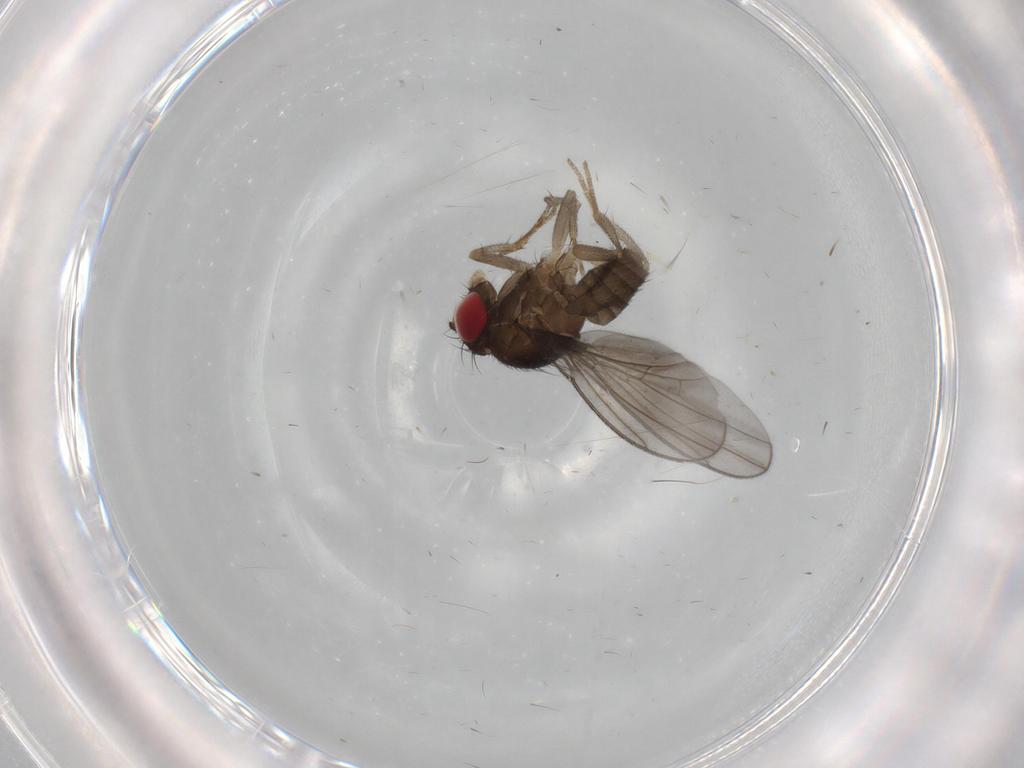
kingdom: Animalia
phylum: Arthropoda
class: Insecta
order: Diptera
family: Drosophilidae
